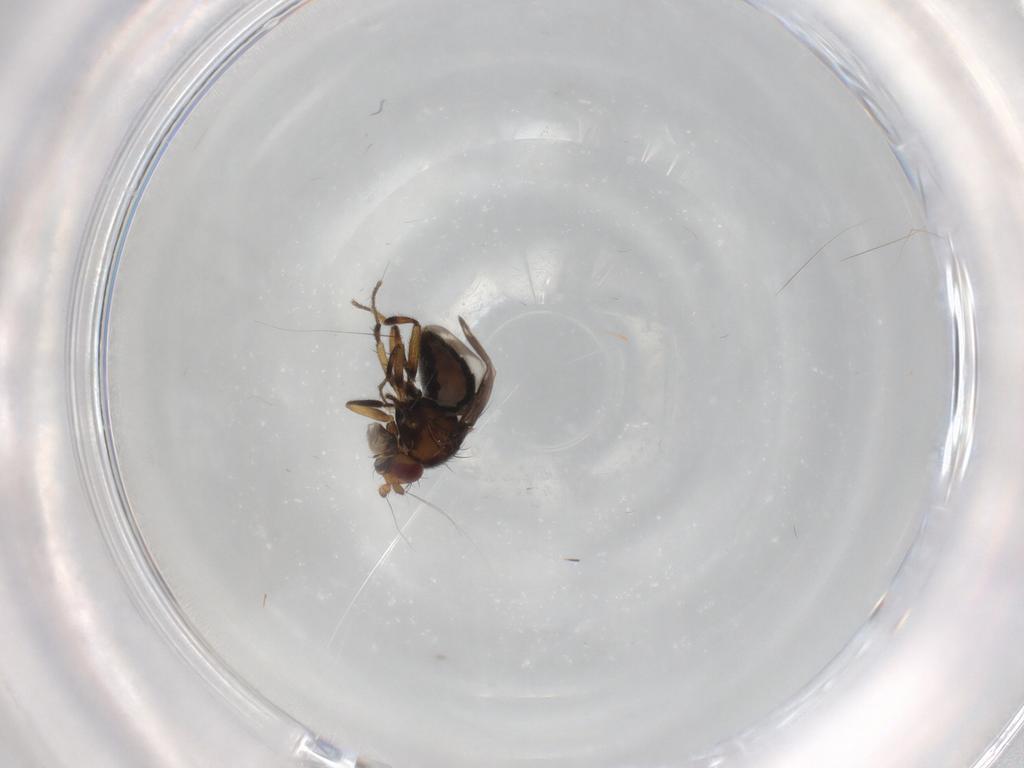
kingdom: Animalia
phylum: Arthropoda
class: Insecta
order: Diptera
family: Sphaeroceridae
